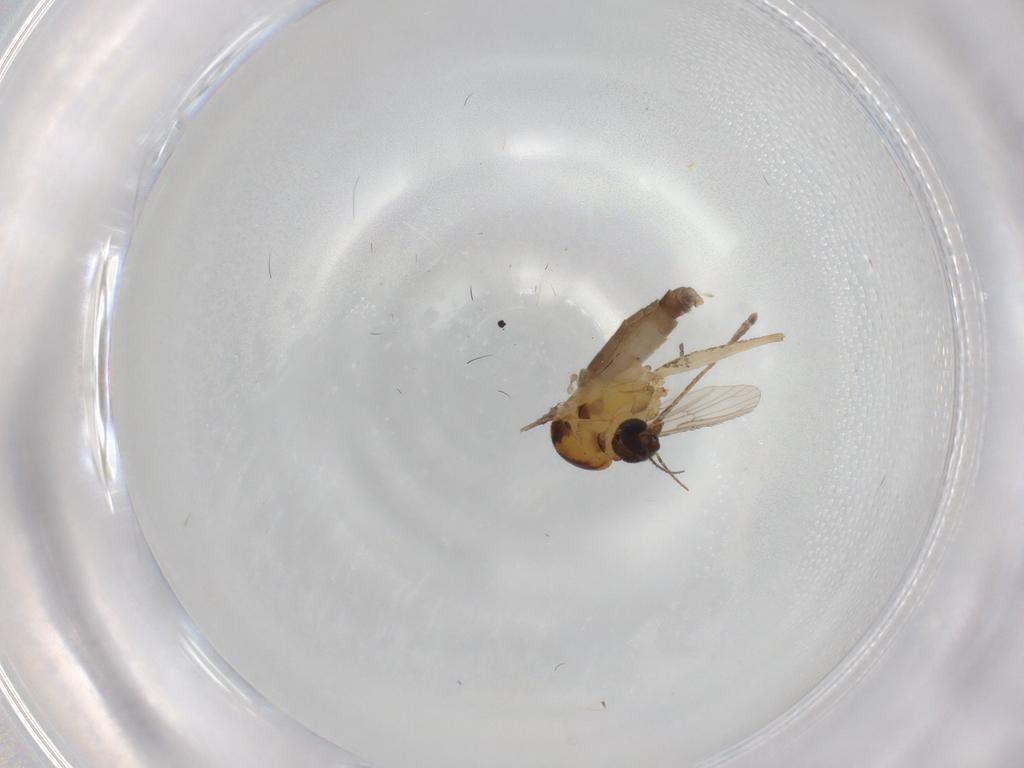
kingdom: Animalia
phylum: Arthropoda
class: Insecta
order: Diptera
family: Dolichopodidae
